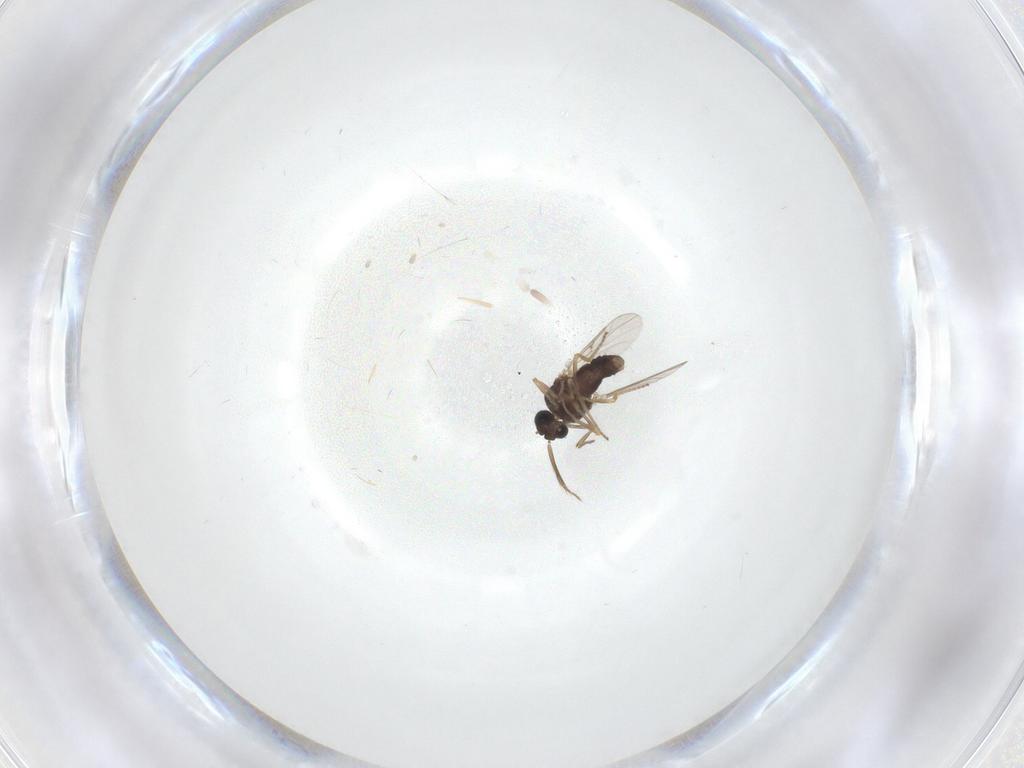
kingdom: Animalia
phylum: Arthropoda
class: Insecta
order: Diptera
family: Ceratopogonidae
